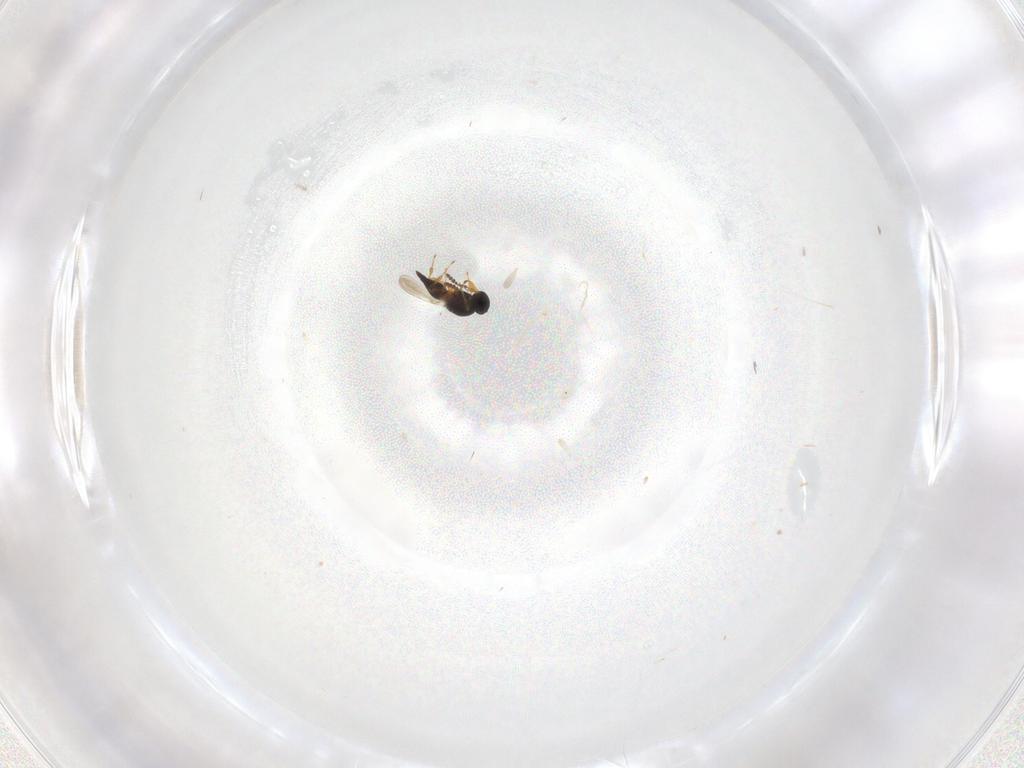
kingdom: Animalia
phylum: Arthropoda
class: Insecta
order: Hymenoptera
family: Platygastridae
